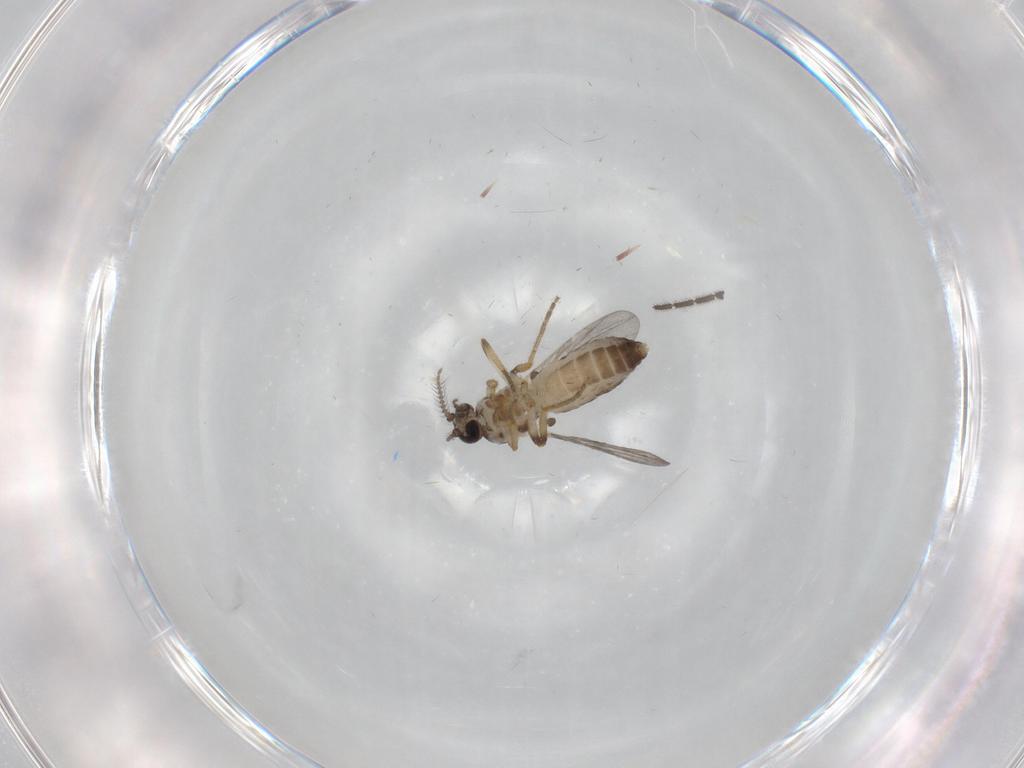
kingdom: Animalia
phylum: Arthropoda
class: Insecta
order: Diptera
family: Ceratopogonidae
